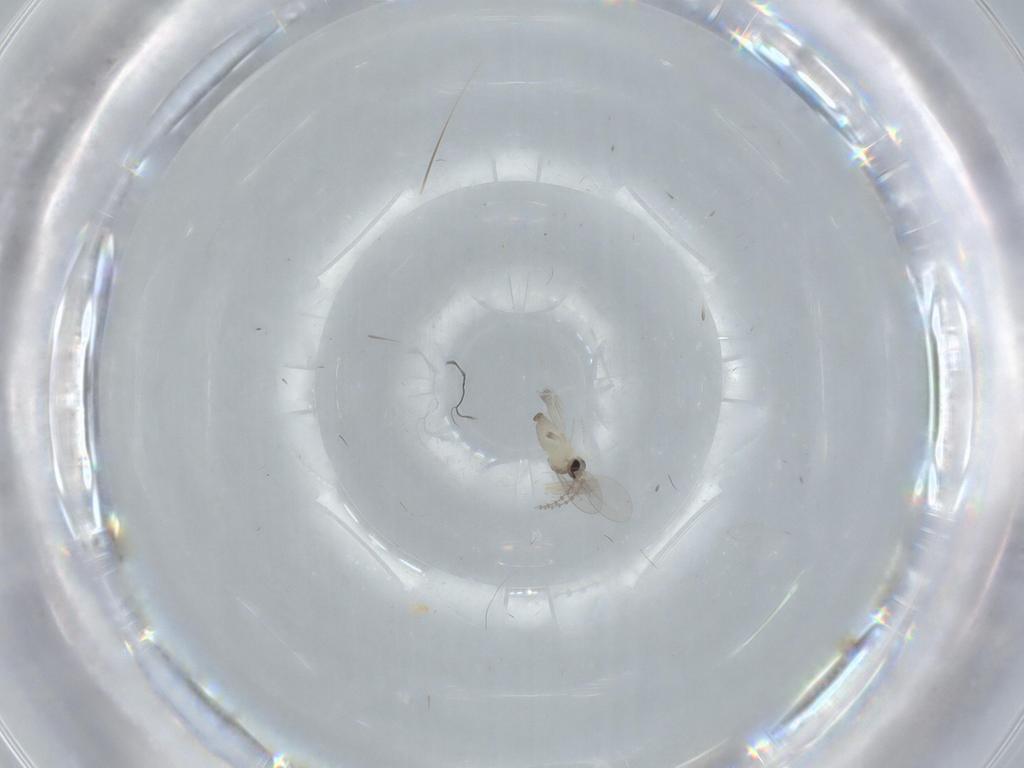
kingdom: Animalia
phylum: Arthropoda
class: Insecta
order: Diptera
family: Cecidomyiidae
